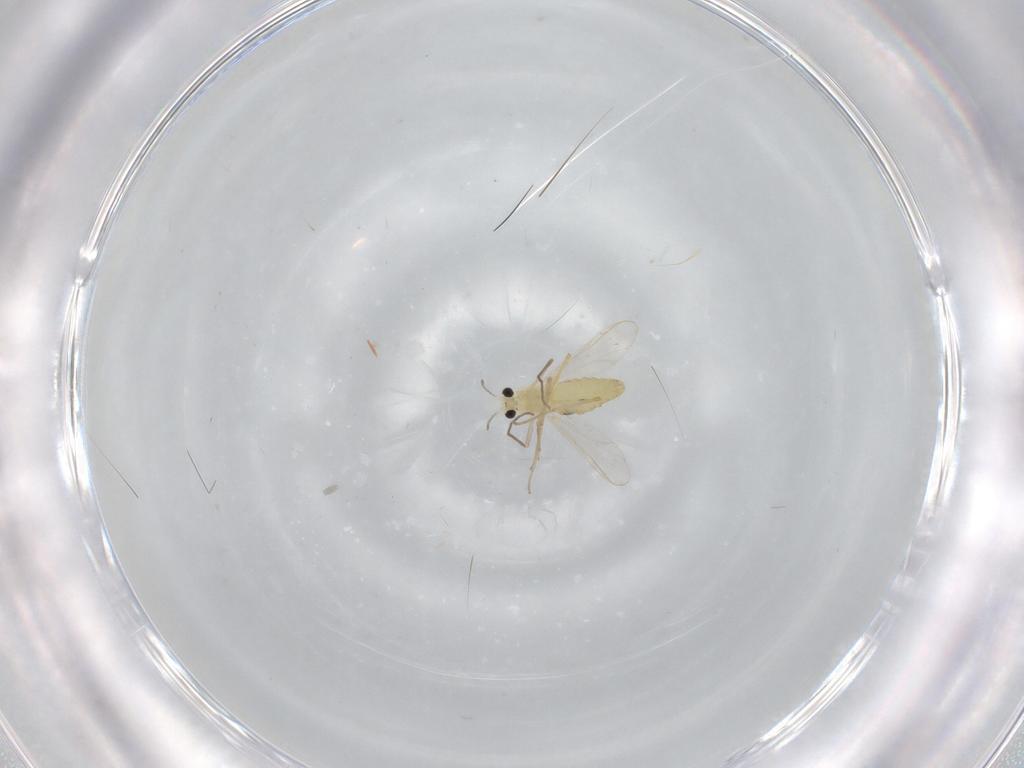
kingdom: Animalia
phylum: Arthropoda
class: Insecta
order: Diptera
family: Chironomidae
